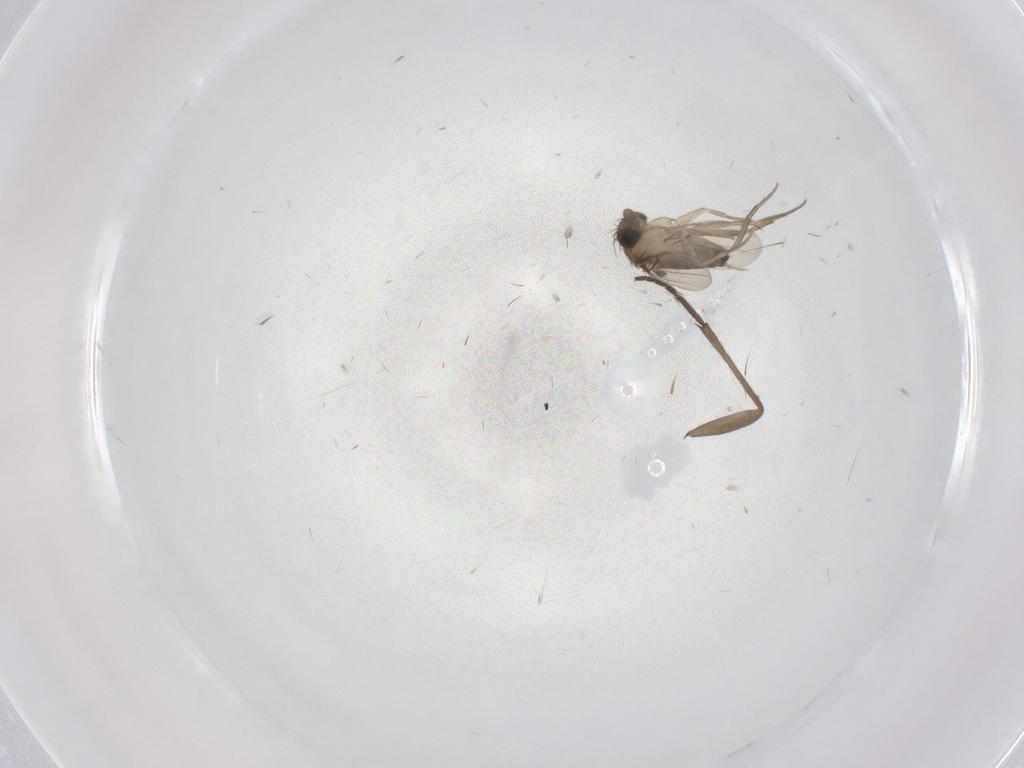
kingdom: Animalia
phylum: Arthropoda
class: Insecta
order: Diptera
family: Phoridae
